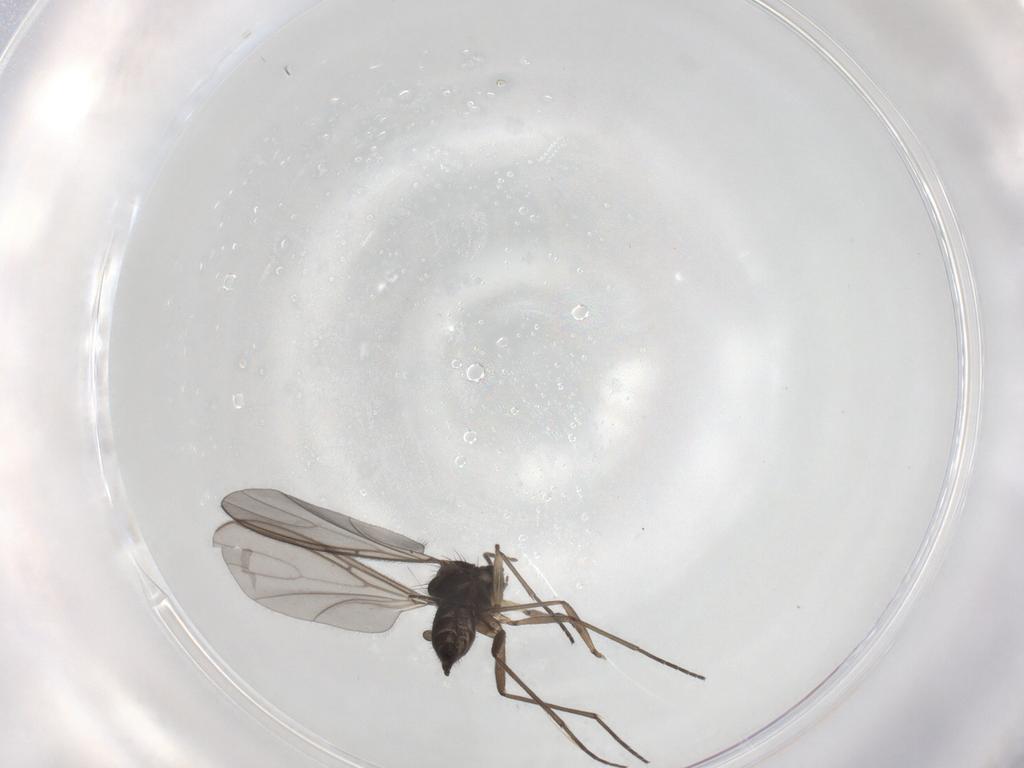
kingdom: Animalia
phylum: Arthropoda
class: Insecta
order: Diptera
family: Sciaridae
